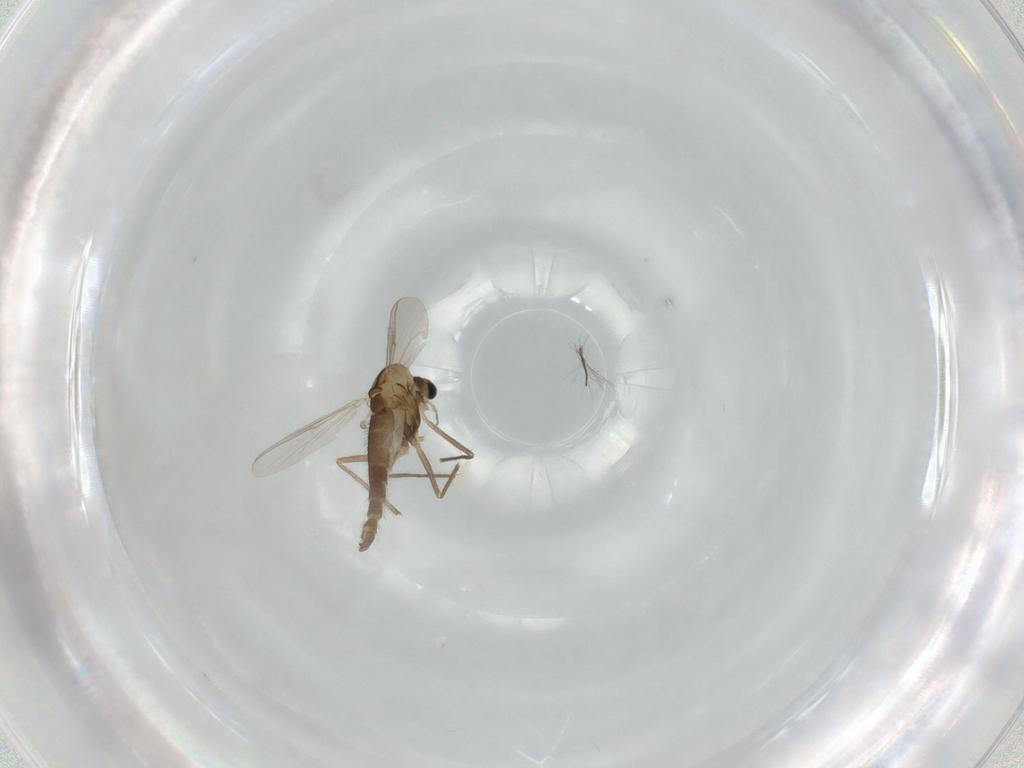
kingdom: Animalia
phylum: Arthropoda
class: Insecta
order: Diptera
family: Chironomidae
